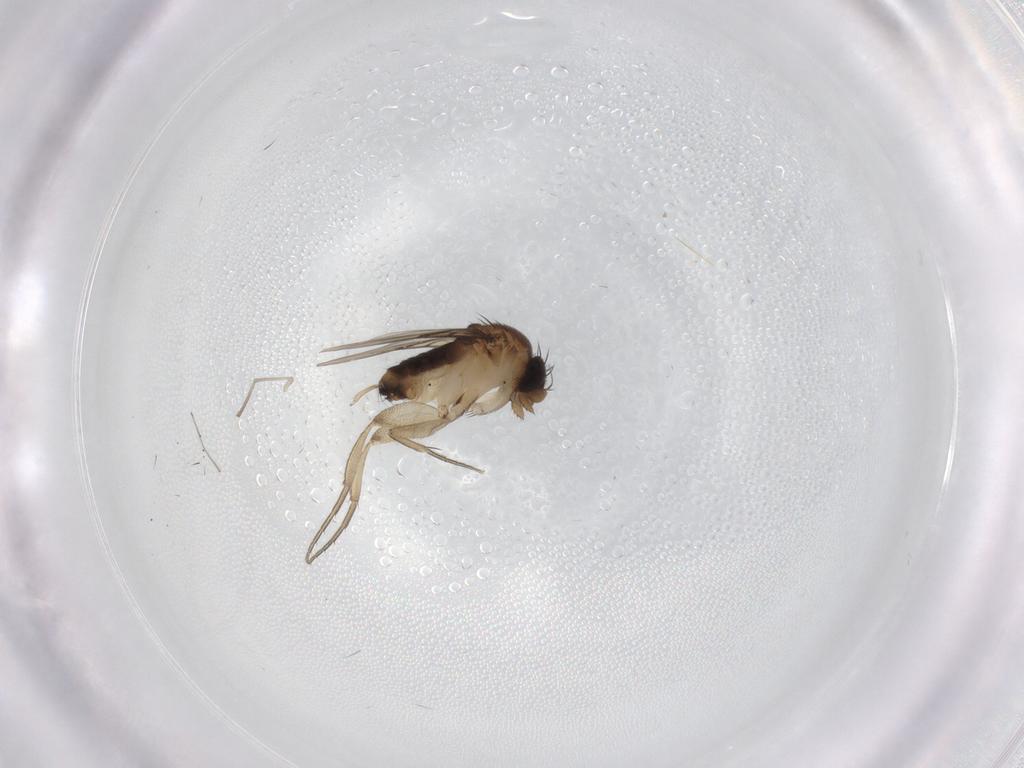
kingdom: Animalia
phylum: Arthropoda
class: Insecta
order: Diptera
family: Psychodidae
